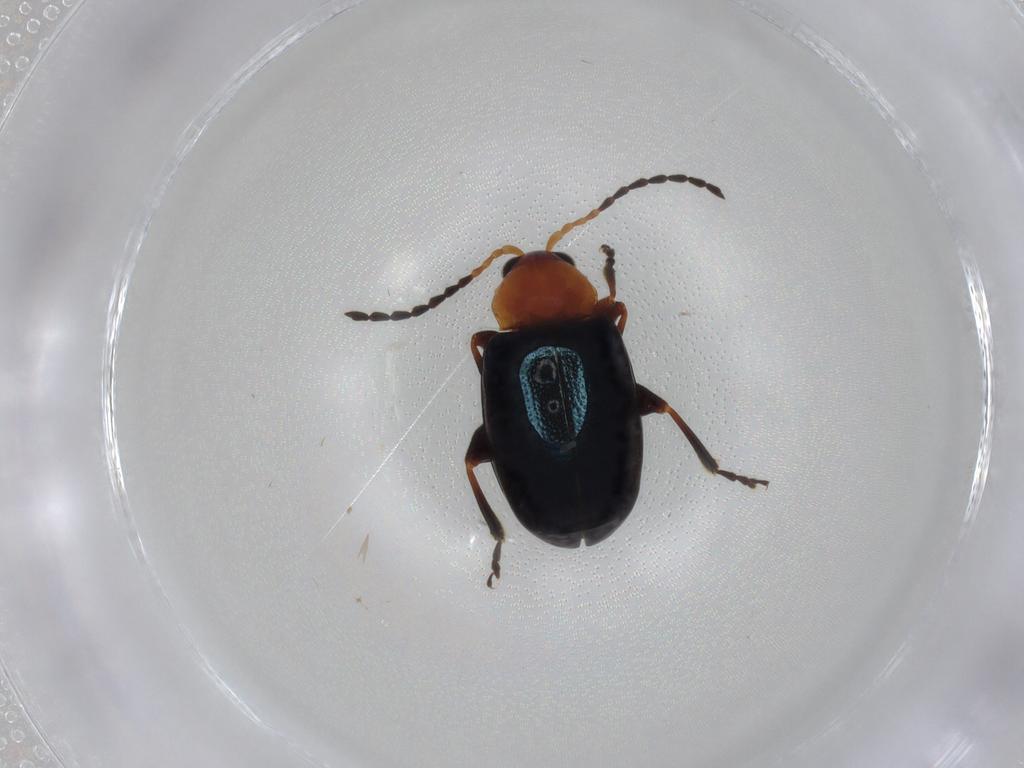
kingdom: Animalia
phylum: Arthropoda
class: Insecta
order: Coleoptera
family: Chrysomelidae
